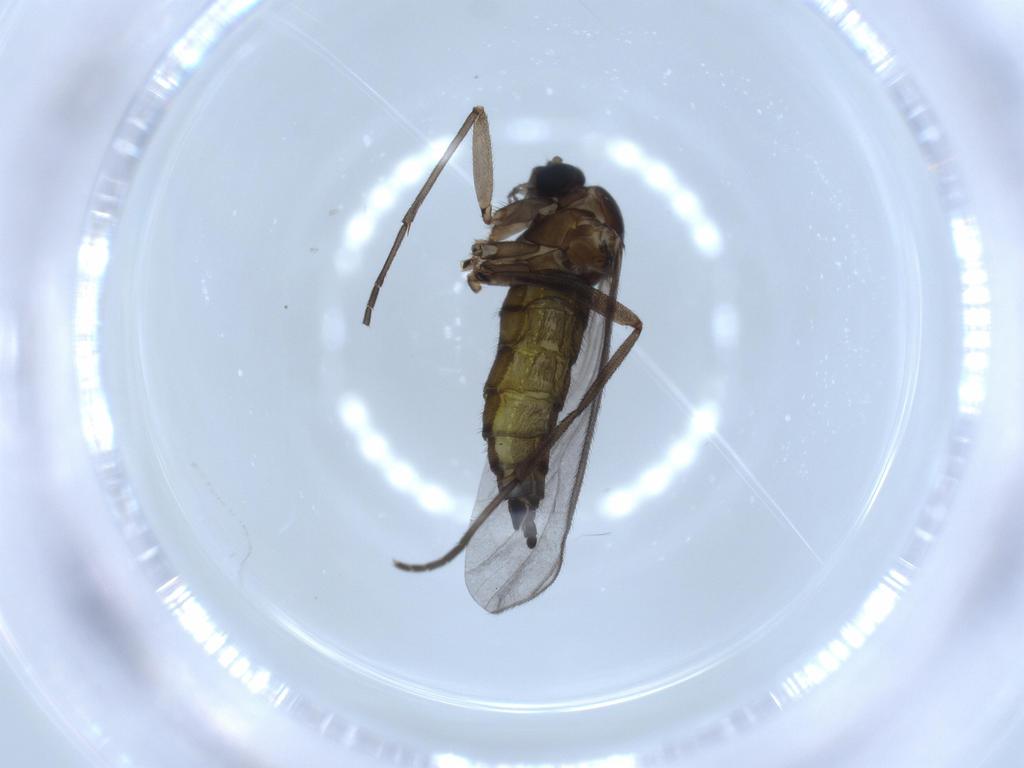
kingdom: Animalia
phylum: Arthropoda
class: Insecta
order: Diptera
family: Sciaridae
